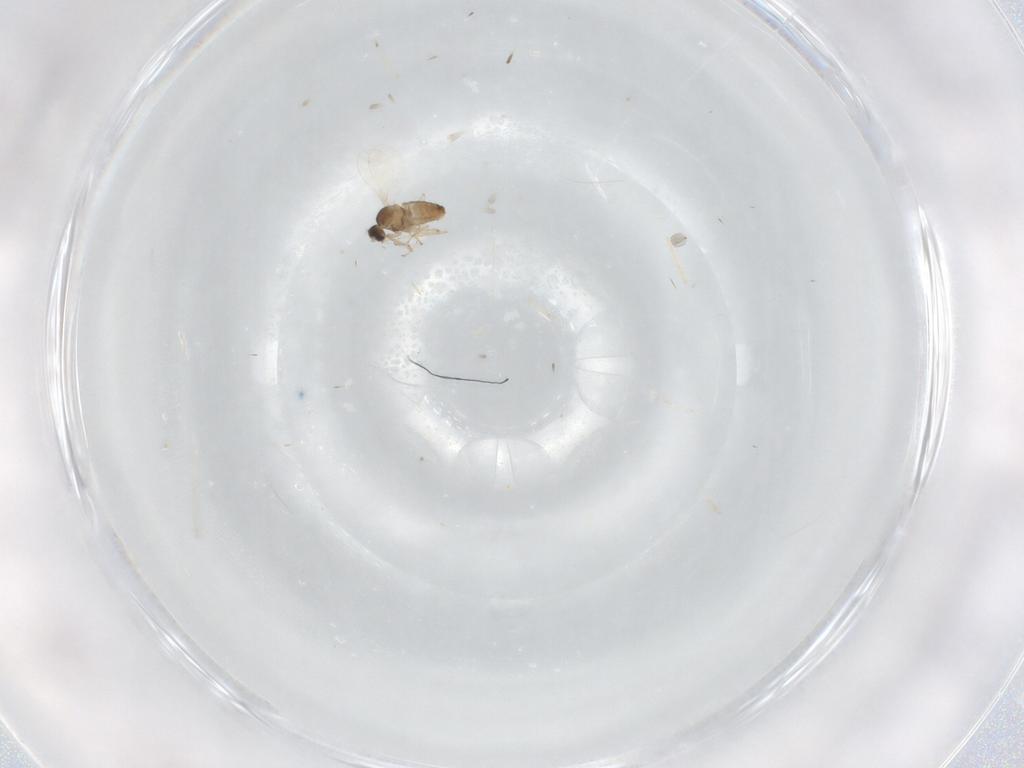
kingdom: Animalia
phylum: Arthropoda
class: Insecta
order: Diptera
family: Cecidomyiidae
